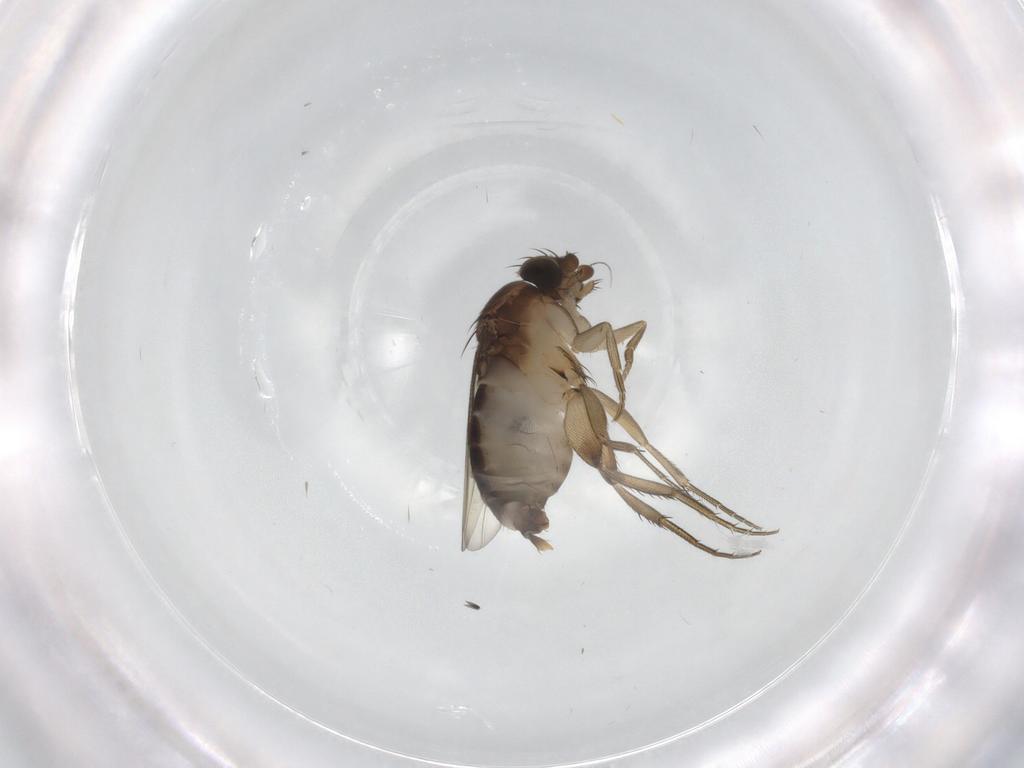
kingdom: Animalia
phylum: Arthropoda
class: Insecta
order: Diptera
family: Phoridae
